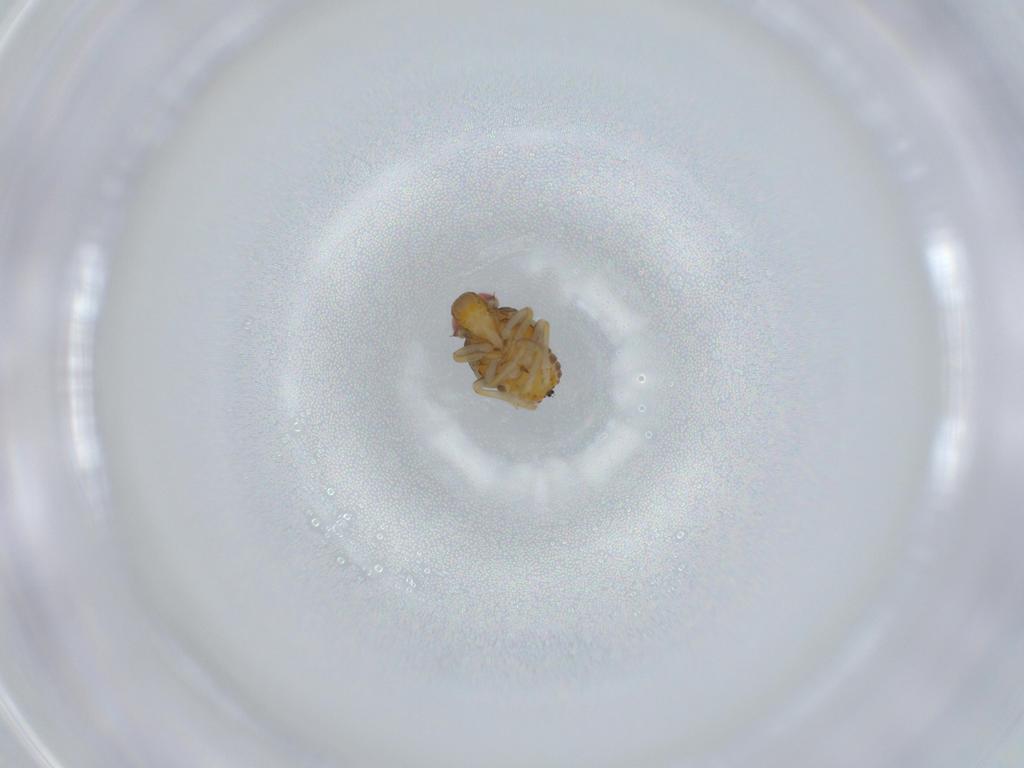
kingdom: Animalia
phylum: Arthropoda
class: Insecta
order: Hemiptera
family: Issidae
